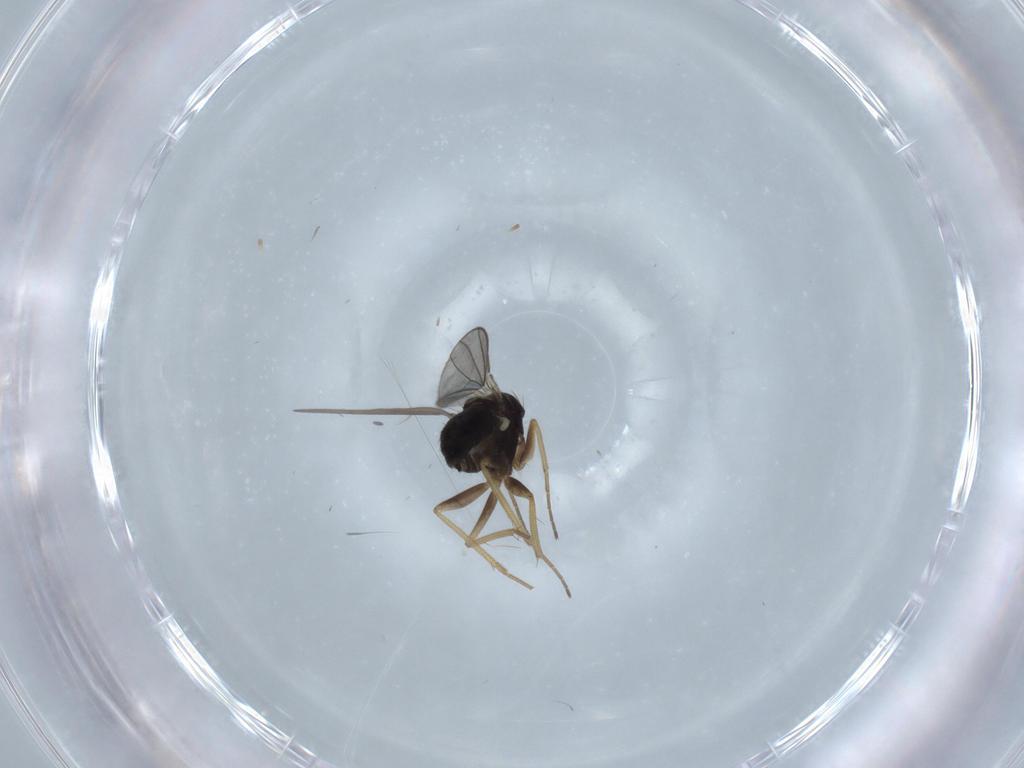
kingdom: Animalia
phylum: Arthropoda
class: Insecta
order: Diptera
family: Dolichopodidae
